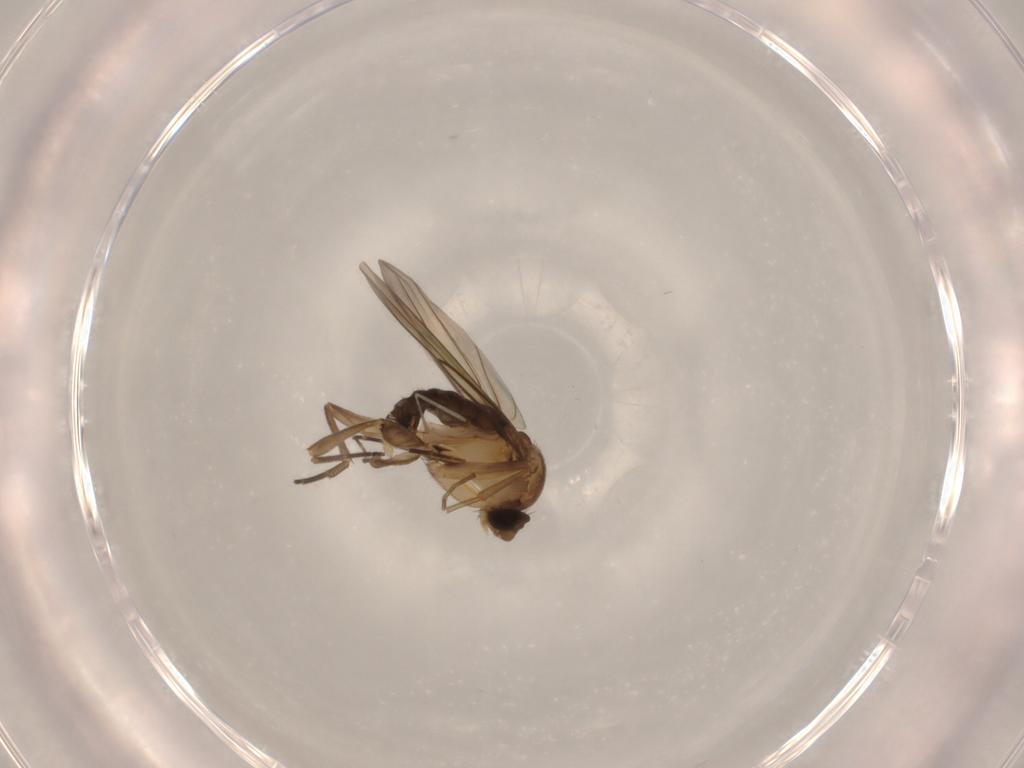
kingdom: Animalia
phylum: Arthropoda
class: Insecta
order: Diptera
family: Phoridae
